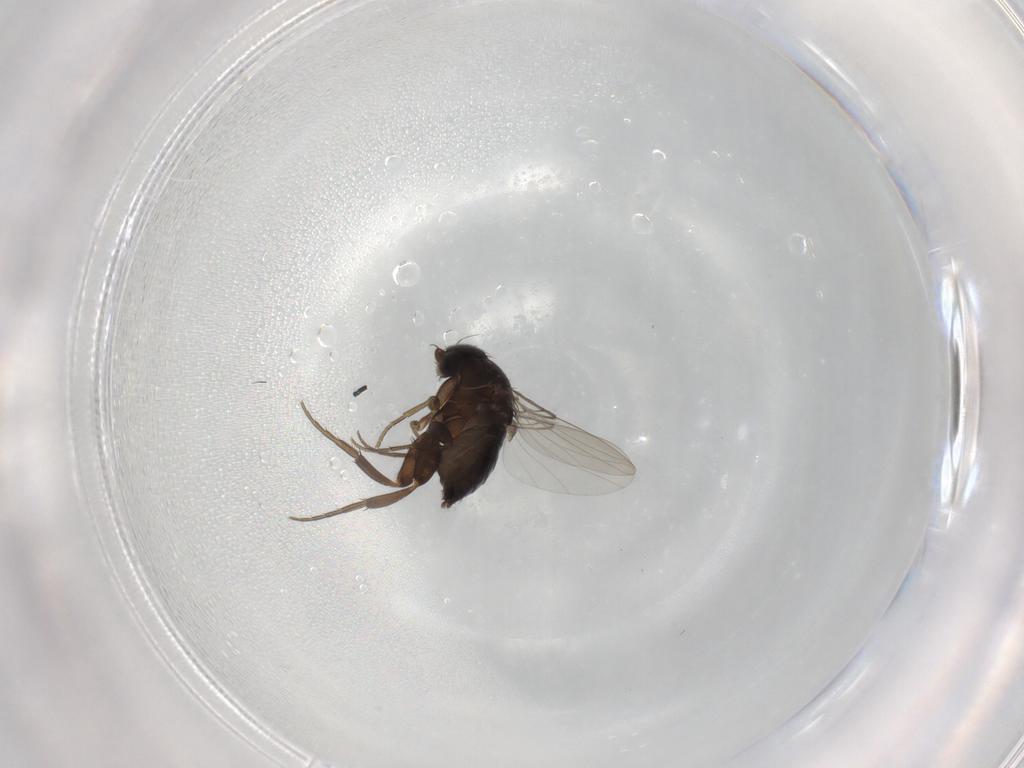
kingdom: Animalia
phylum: Arthropoda
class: Insecta
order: Diptera
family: Phoridae
